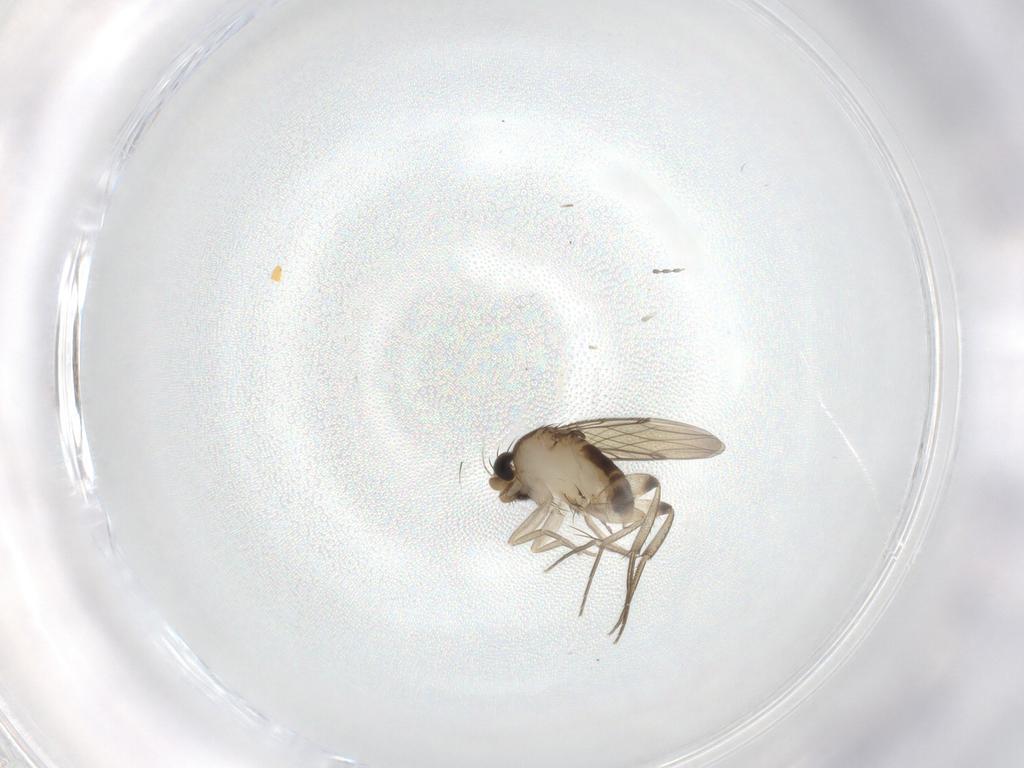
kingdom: Animalia
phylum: Arthropoda
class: Insecta
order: Diptera
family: Phoridae
